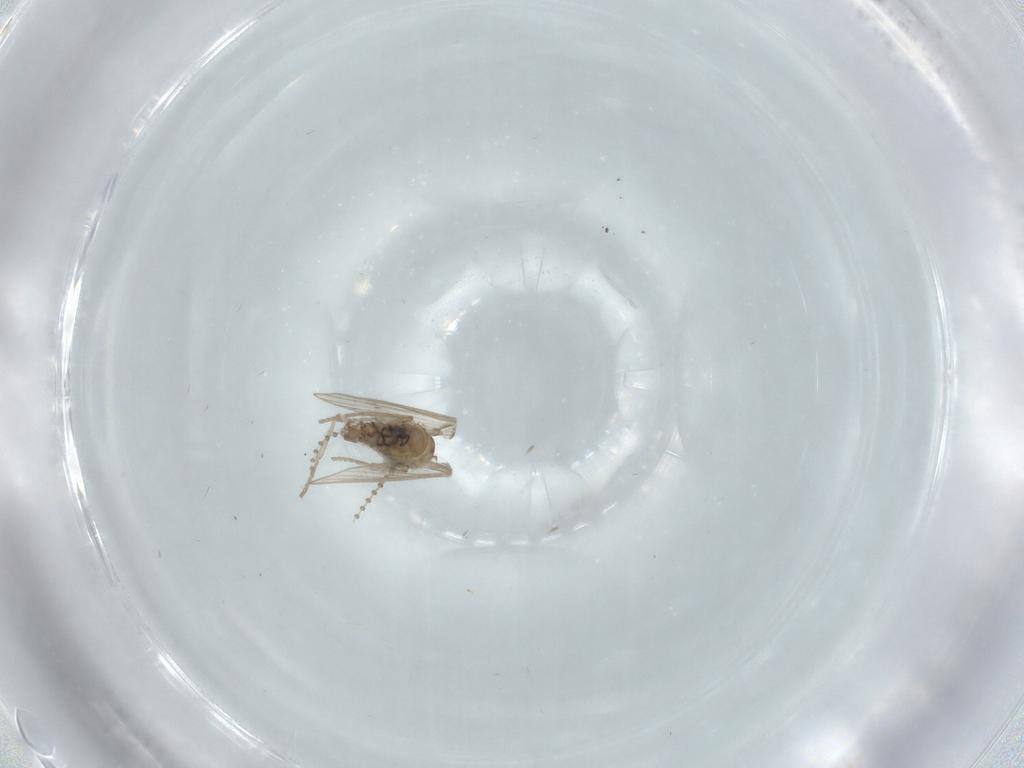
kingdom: Animalia
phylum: Arthropoda
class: Insecta
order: Diptera
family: Psychodidae
